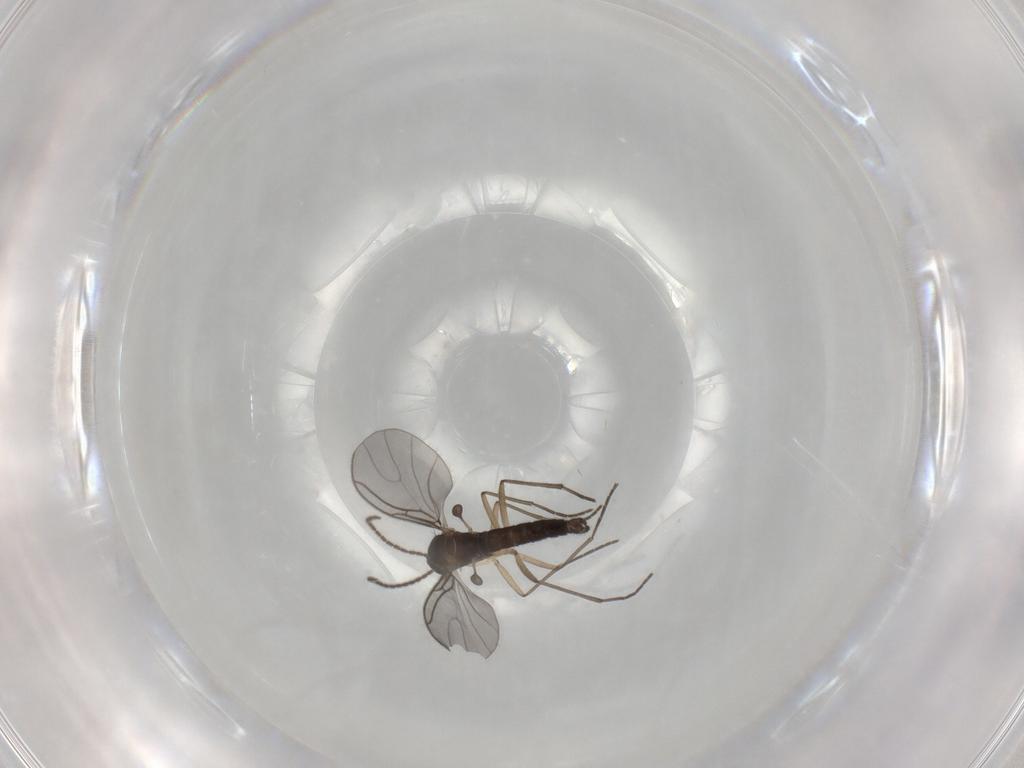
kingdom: Animalia
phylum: Arthropoda
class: Insecta
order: Diptera
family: Sciaridae
